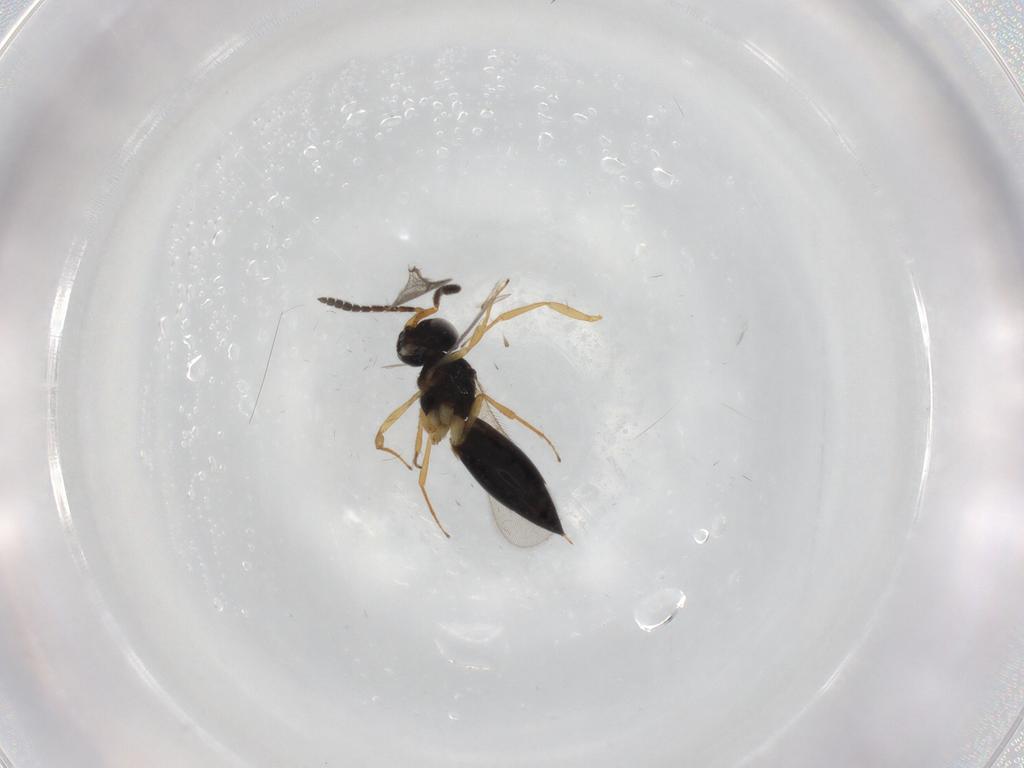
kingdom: Animalia
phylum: Arthropoda
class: Insecta
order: Hymenoptera
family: Scelionidae
